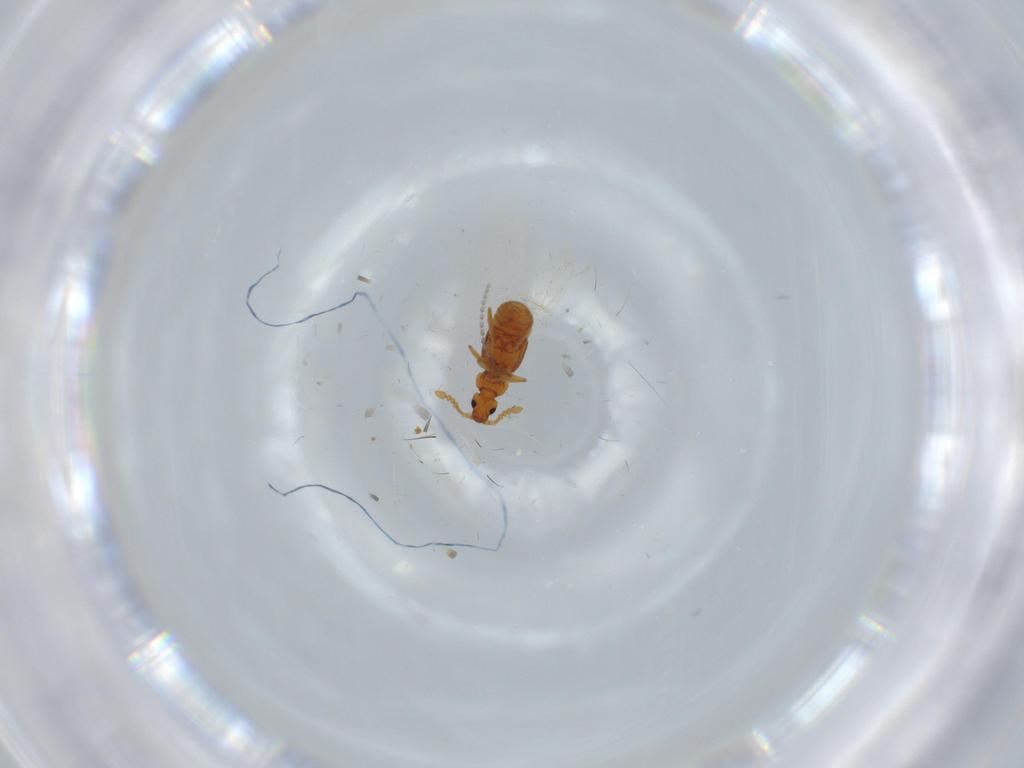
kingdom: Animalia
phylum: Arthropoda
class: Insecta
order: Coleoptera
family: Staphylinidae
